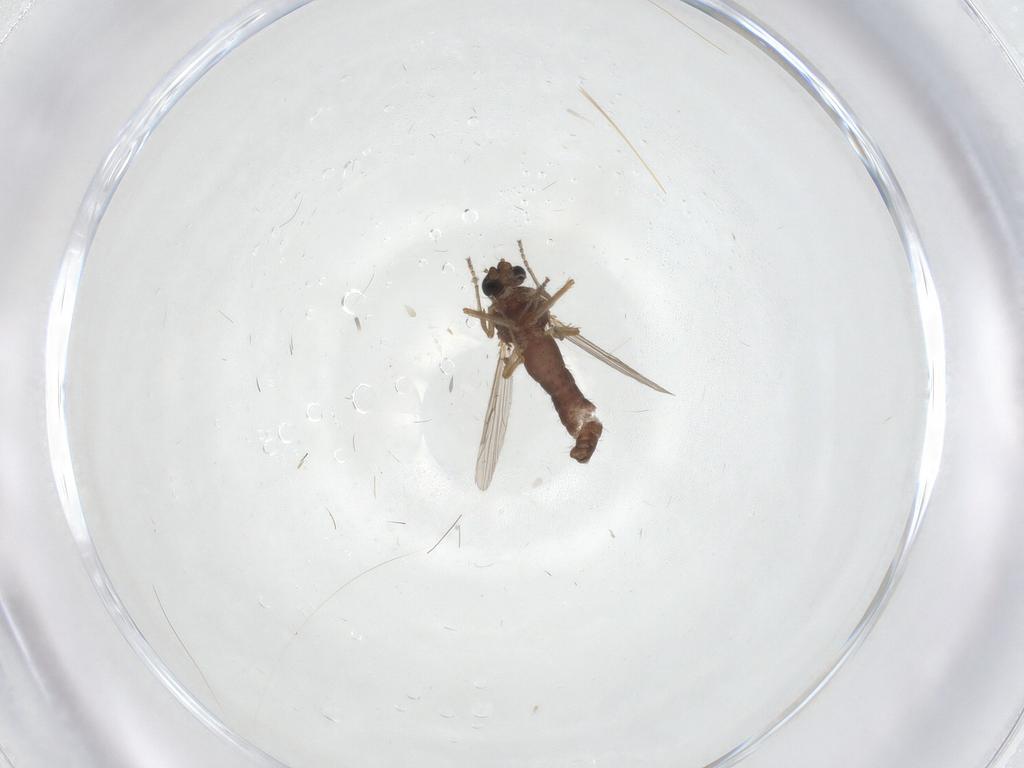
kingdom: Animalia
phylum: Arthropoda
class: Insecta
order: Diptera
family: Ceratopogonidae
